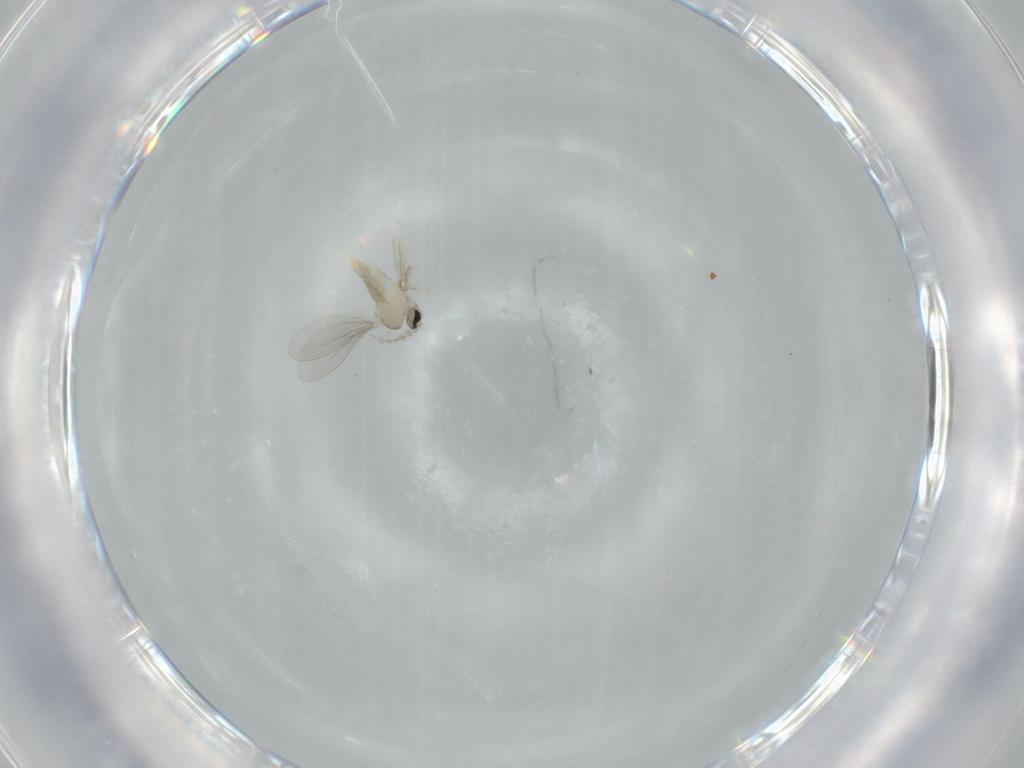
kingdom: Animalia
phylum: Arthropoda
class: Insecta
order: Diptera
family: Cecidomyiidae
